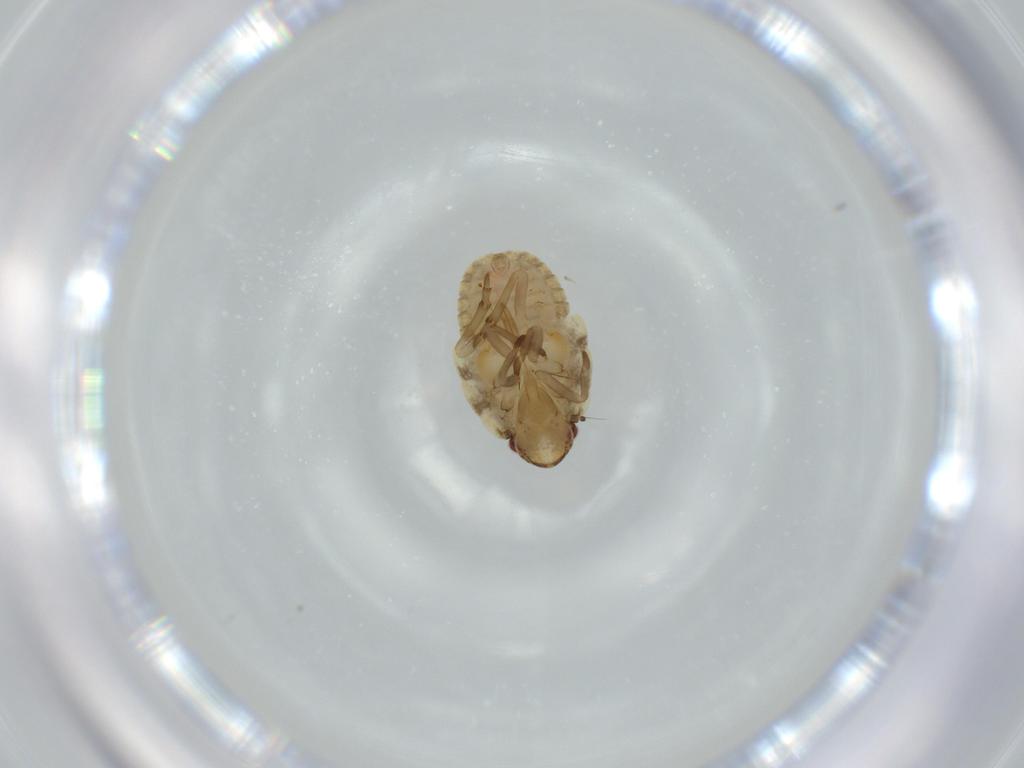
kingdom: Animalia
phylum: Arthropoda
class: Insecta
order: Hemiptera
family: Flatidae
